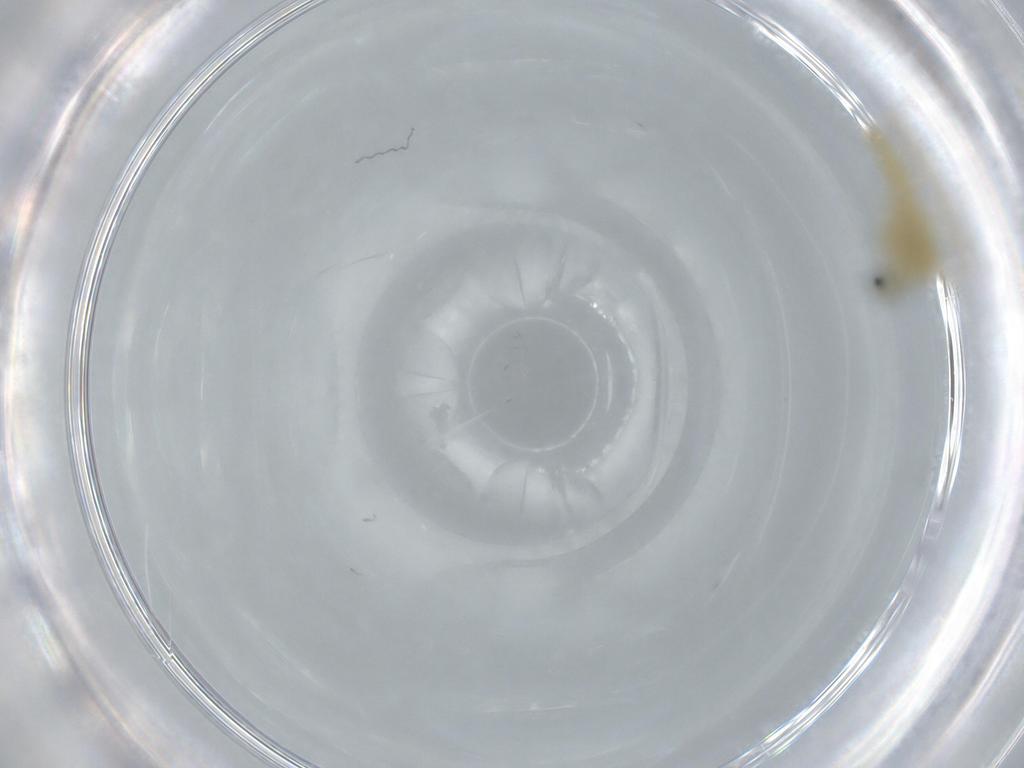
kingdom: Animalia
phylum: Arthropoda
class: Insecta
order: Diptera
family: Chironomidae
